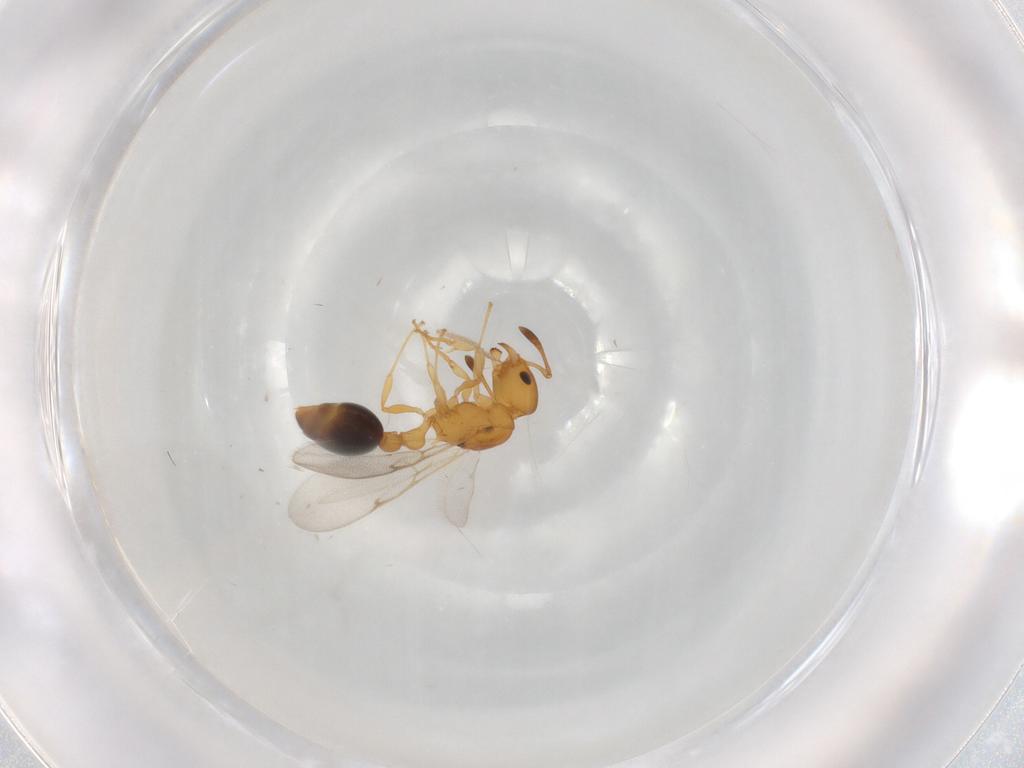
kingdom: Animalia
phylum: Arthropoda
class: Insecta
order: Hymenoptera
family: Formicidae
